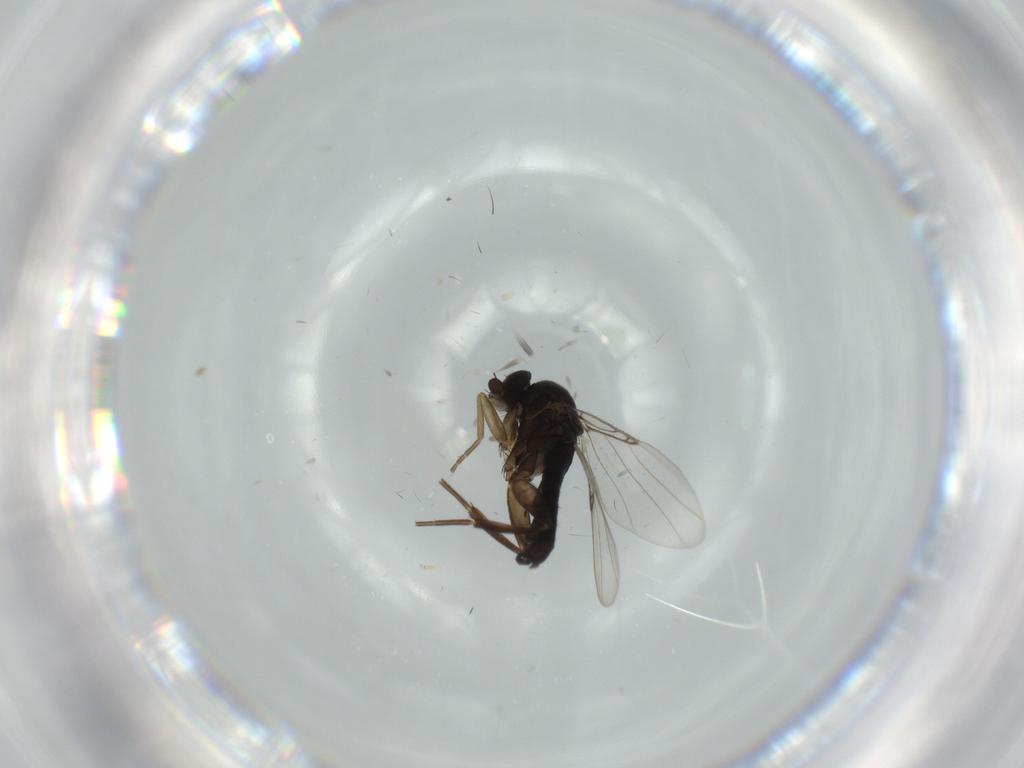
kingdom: Animalia
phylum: Arthropoda
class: Insecta
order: Diptera
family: Phoridae
